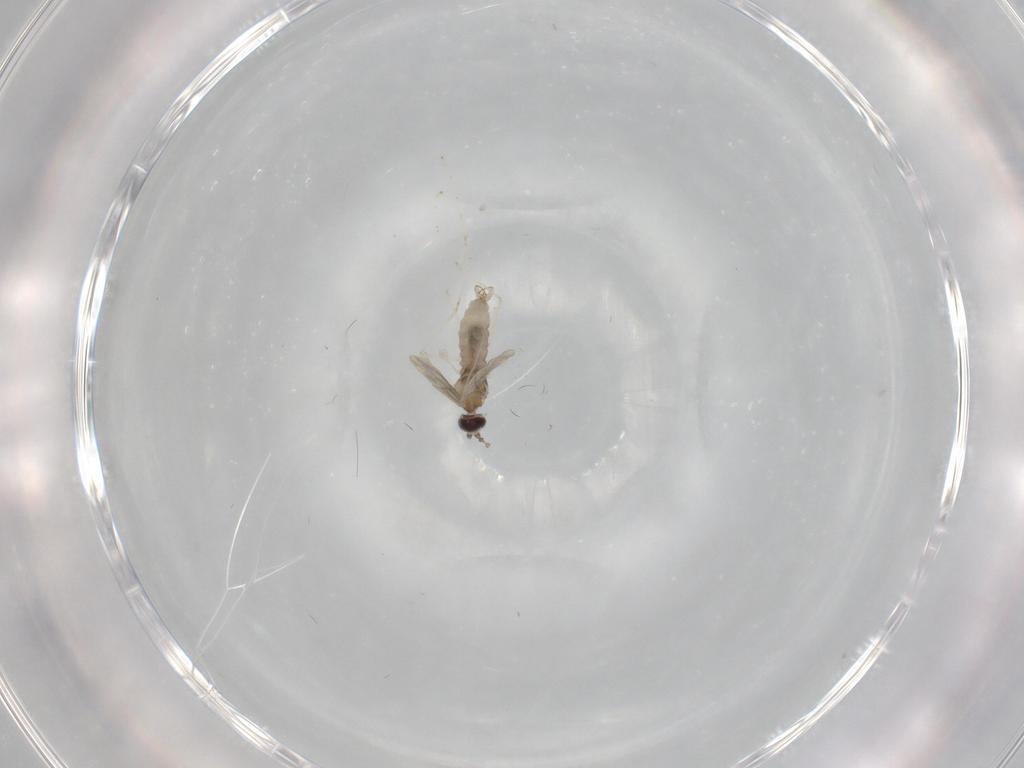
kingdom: Animalia
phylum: Arthropoda
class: Insecta
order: Diptera
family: Cecidomyiidae
